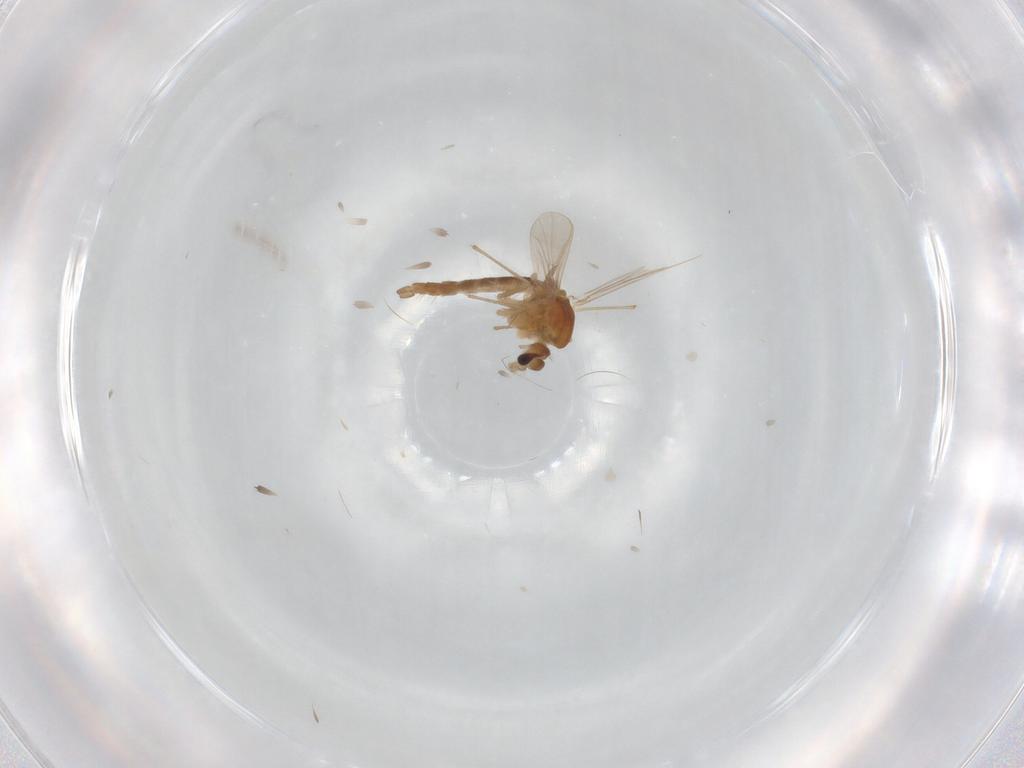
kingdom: Animalia
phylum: Arthropoda
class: Insecta
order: Diptera
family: Chironomidae
